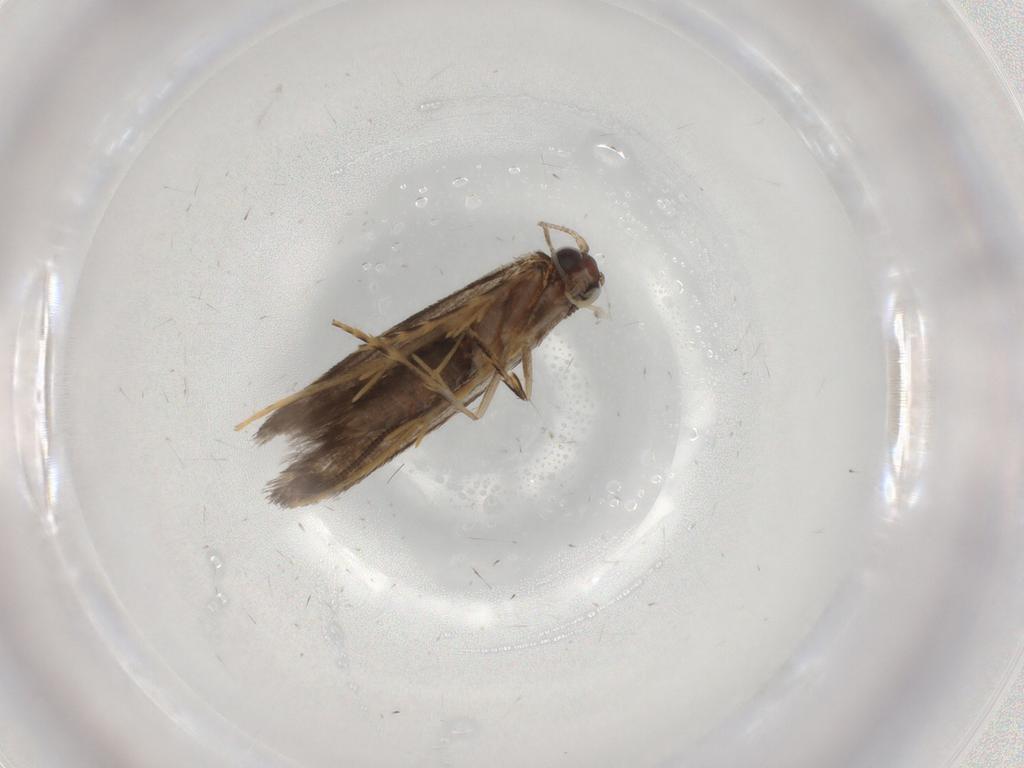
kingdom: Animalia
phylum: Arthropoda
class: Insecta
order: Lepidoptera
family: Tineidae
